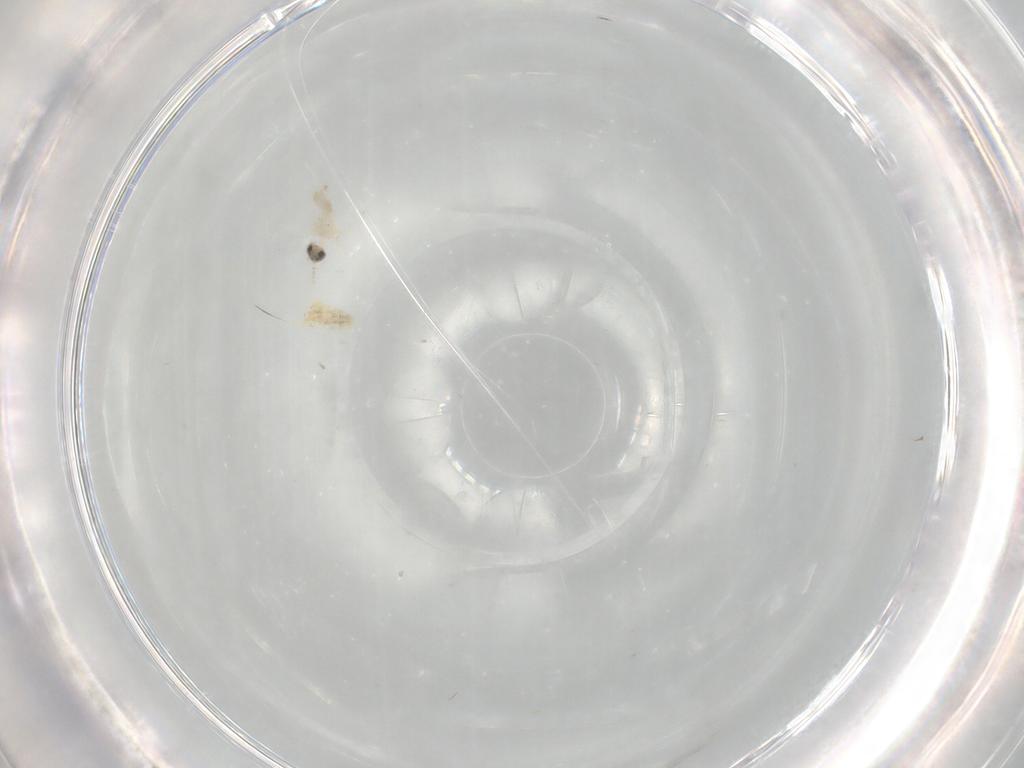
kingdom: Animalia
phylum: Arthropoda
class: Insecta
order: Diptera
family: Cecidomyiidae
